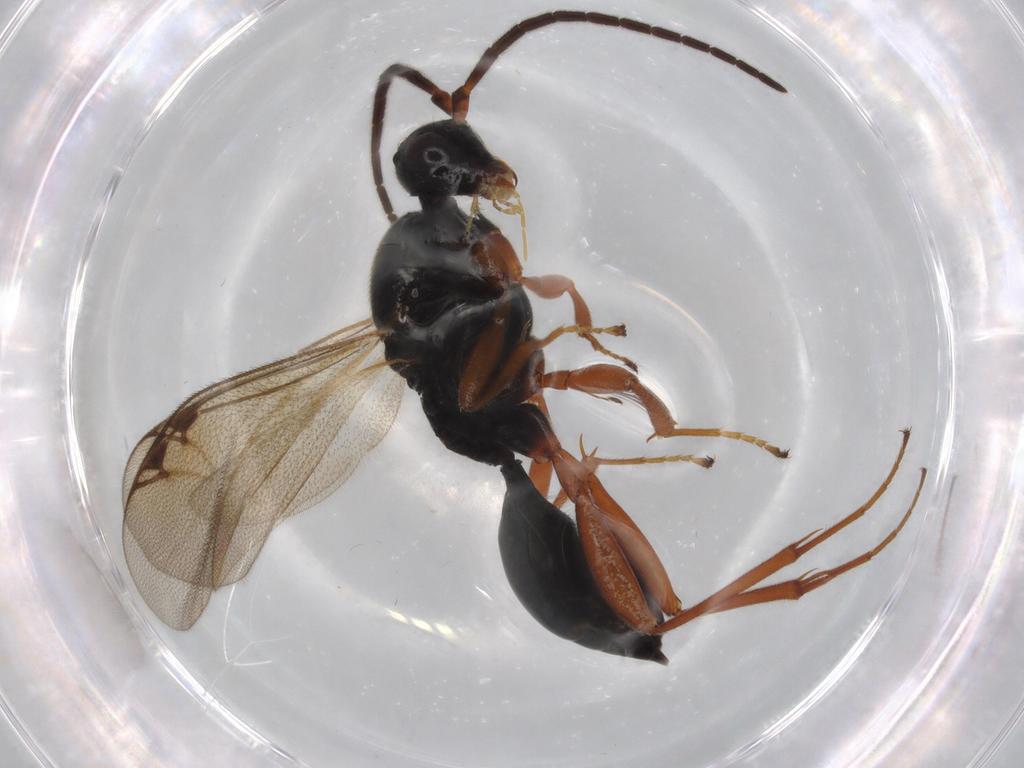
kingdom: Animalia
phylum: Arthropoda
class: Insecta
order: Hymenoptera
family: Proctotrupidae
